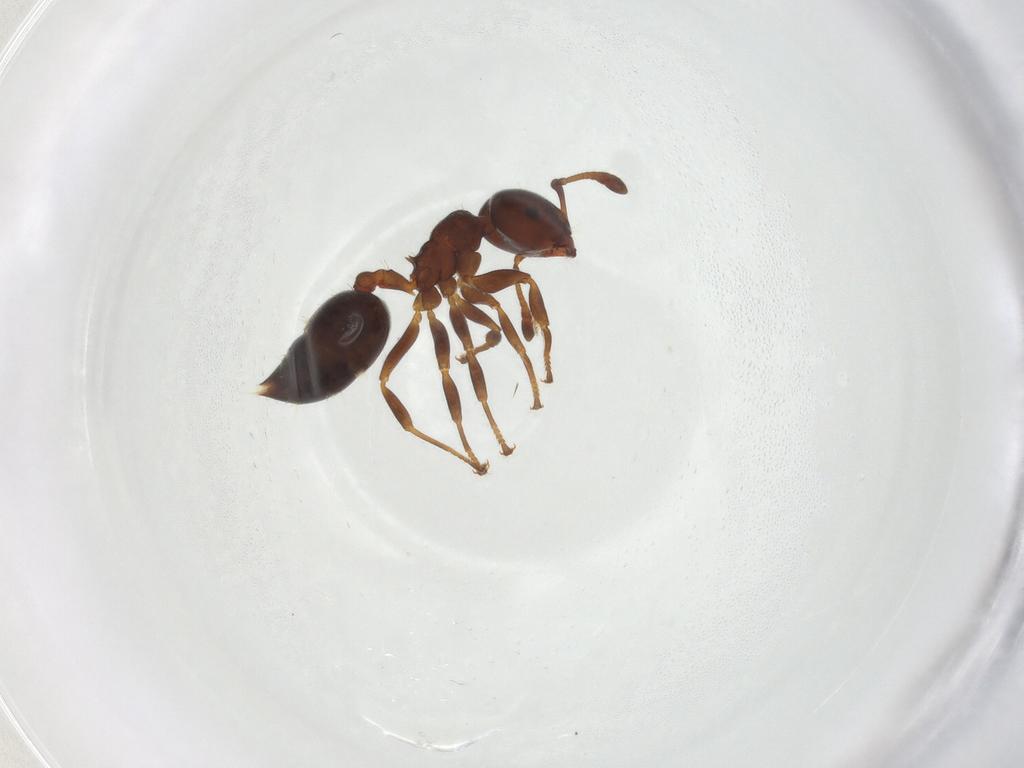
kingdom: Animalia
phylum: Arthropoda
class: Insecta
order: Hymenoptera
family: Formicidae
